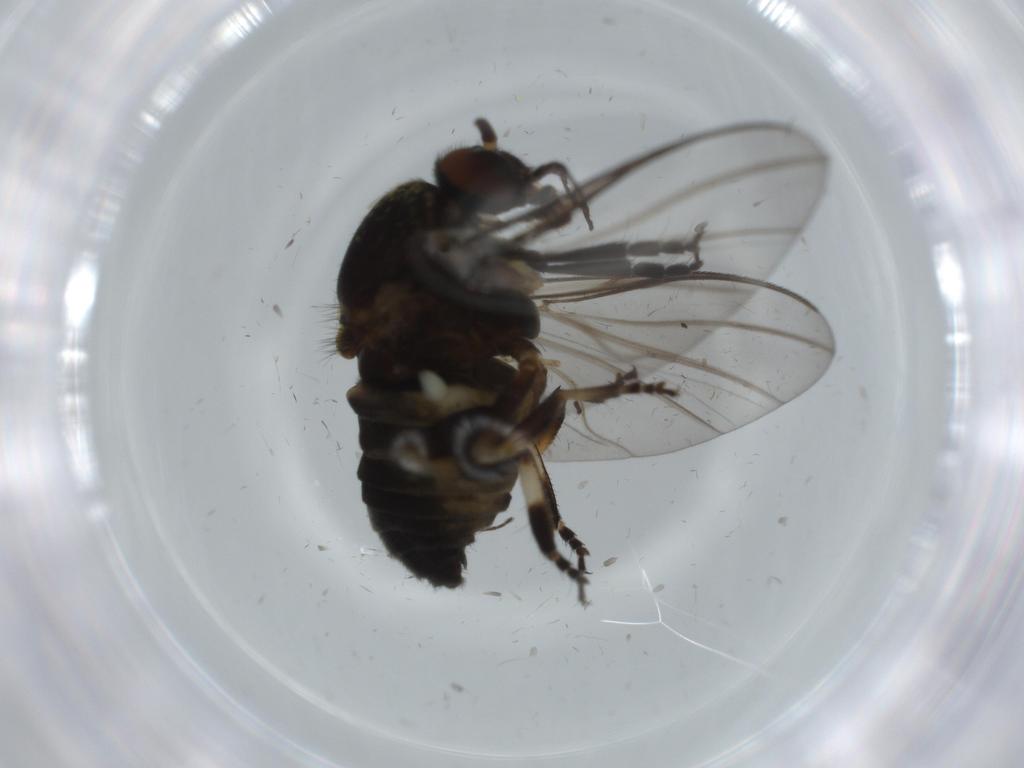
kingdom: Animalia
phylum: Arthropoda
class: Insecta
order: Diptera
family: Simuliidae
